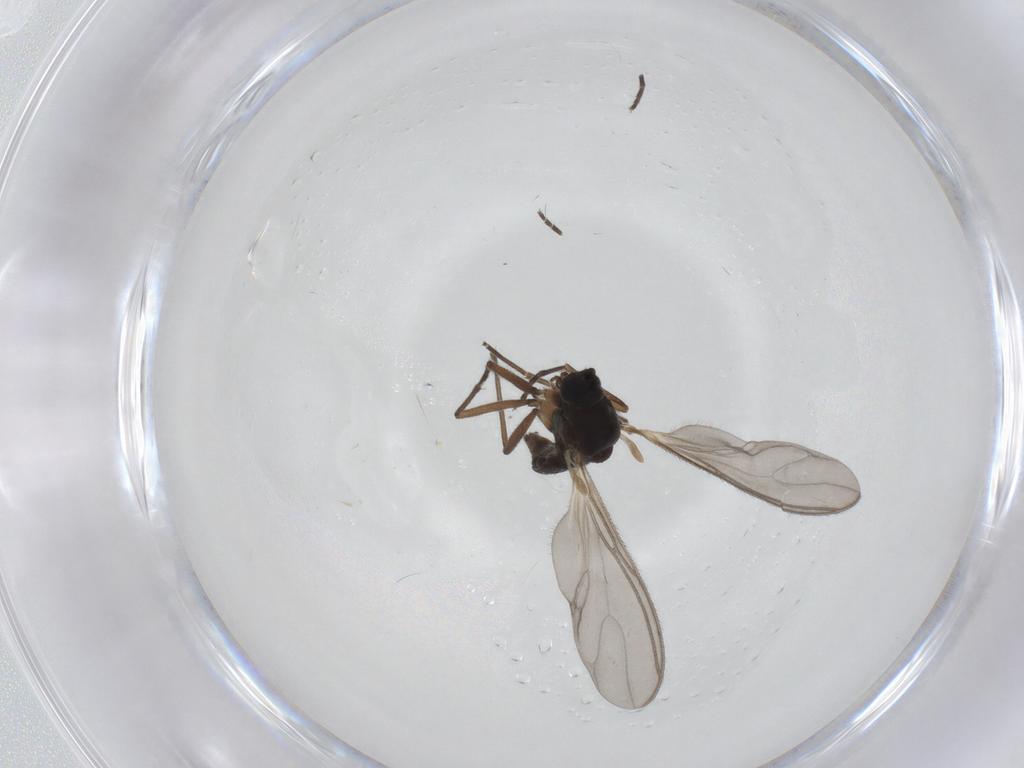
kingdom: Animalia
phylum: Arthropoda
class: Insecta
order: Diptera
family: Sciaridae
